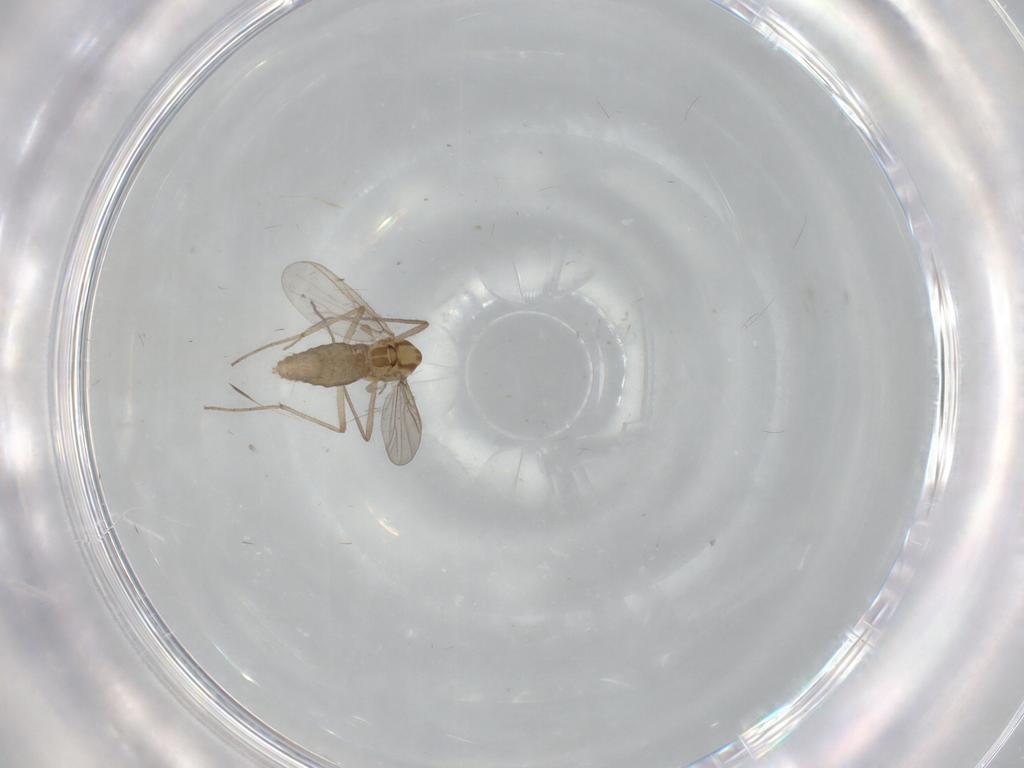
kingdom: Animalia
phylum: Arthropoda
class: Insecta
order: Diptera
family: Chironomidae
